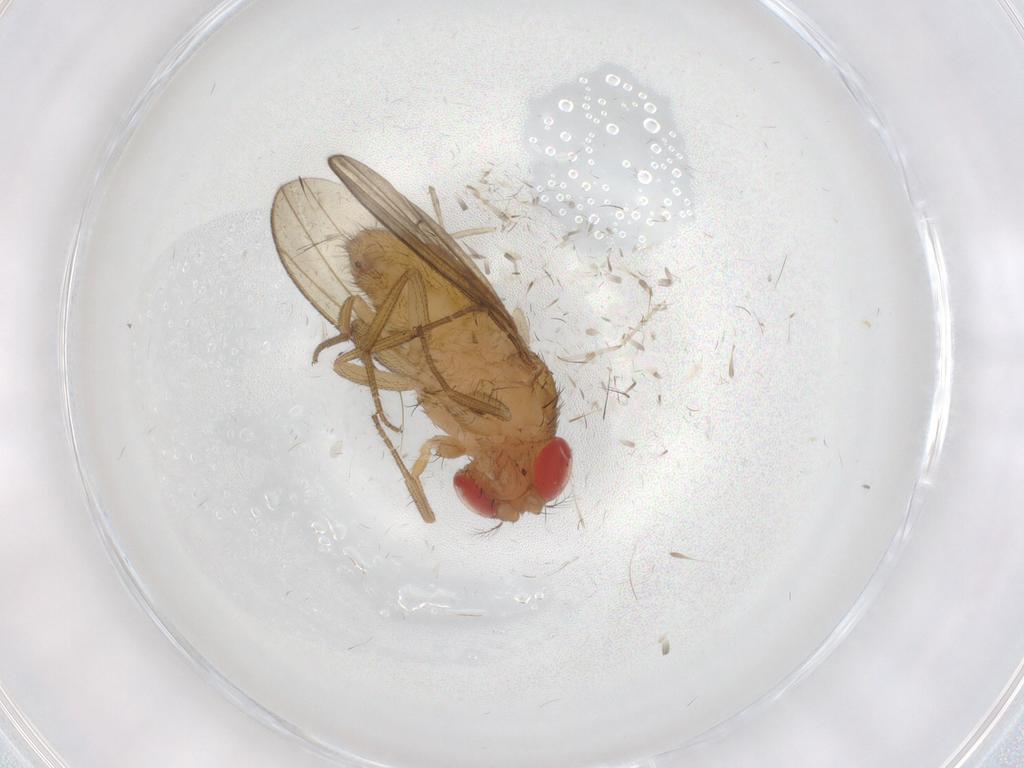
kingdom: Animalia
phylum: Arthropoda
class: Insecta
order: Diptera
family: Drosophilidae
